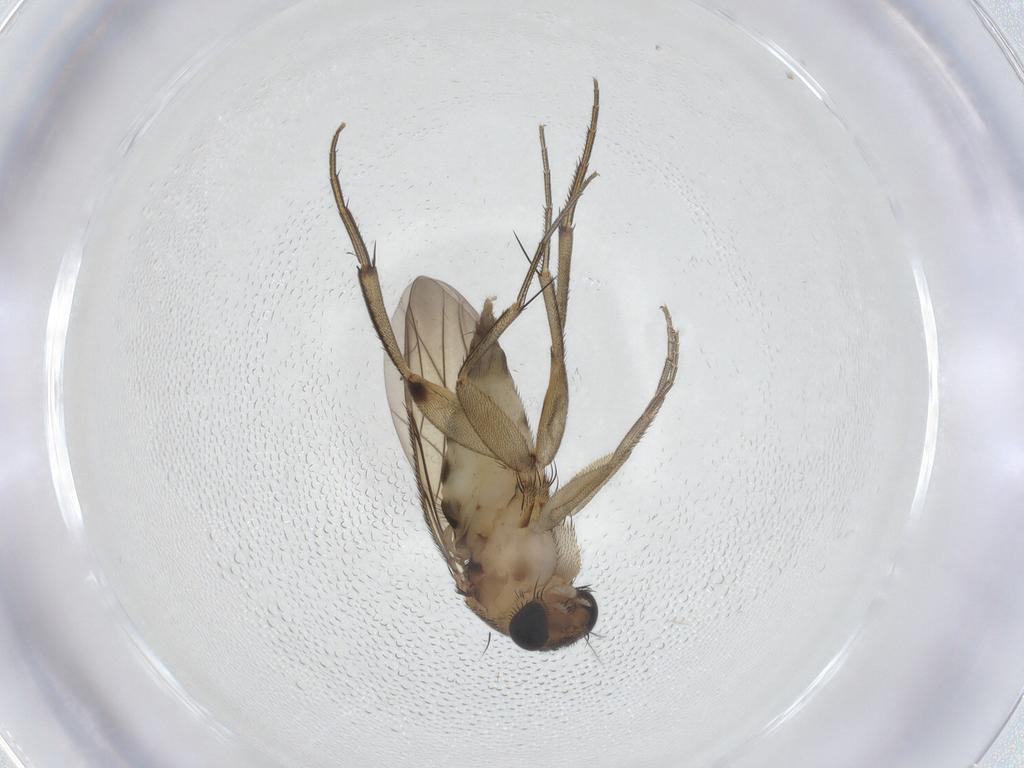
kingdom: Animalia
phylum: Arthropoda
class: Insecta
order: Diptera
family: Phoridae
